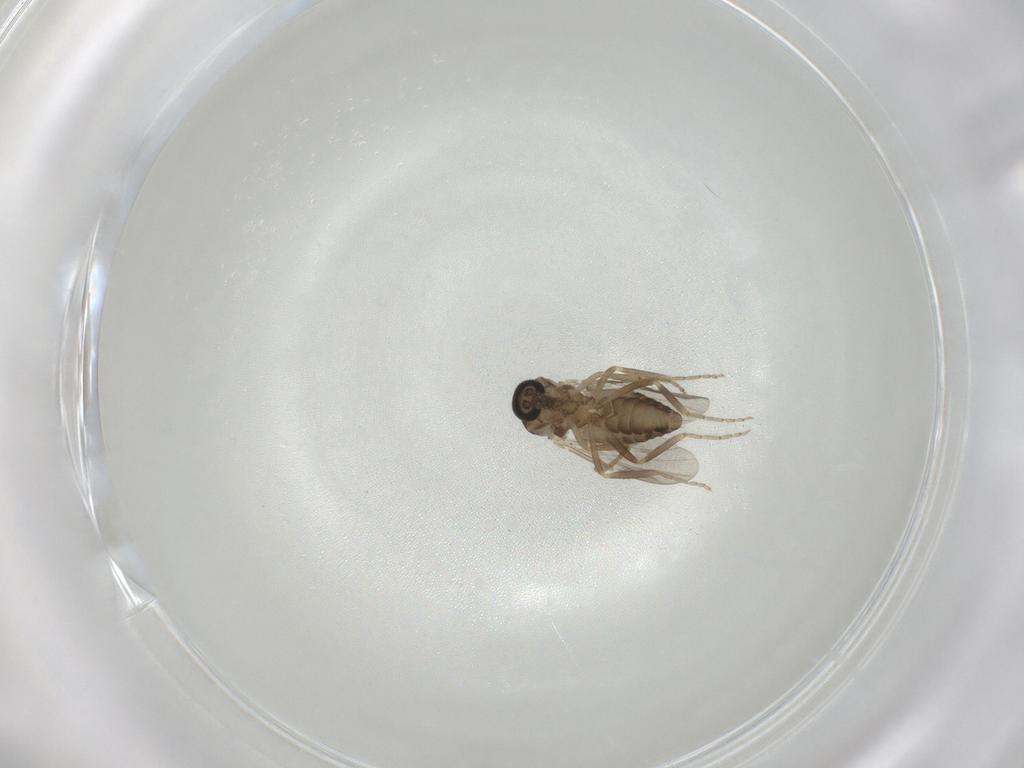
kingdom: Animalia
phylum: Arthropoda
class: Insecta
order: Diptera
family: Ceratopogonidae
